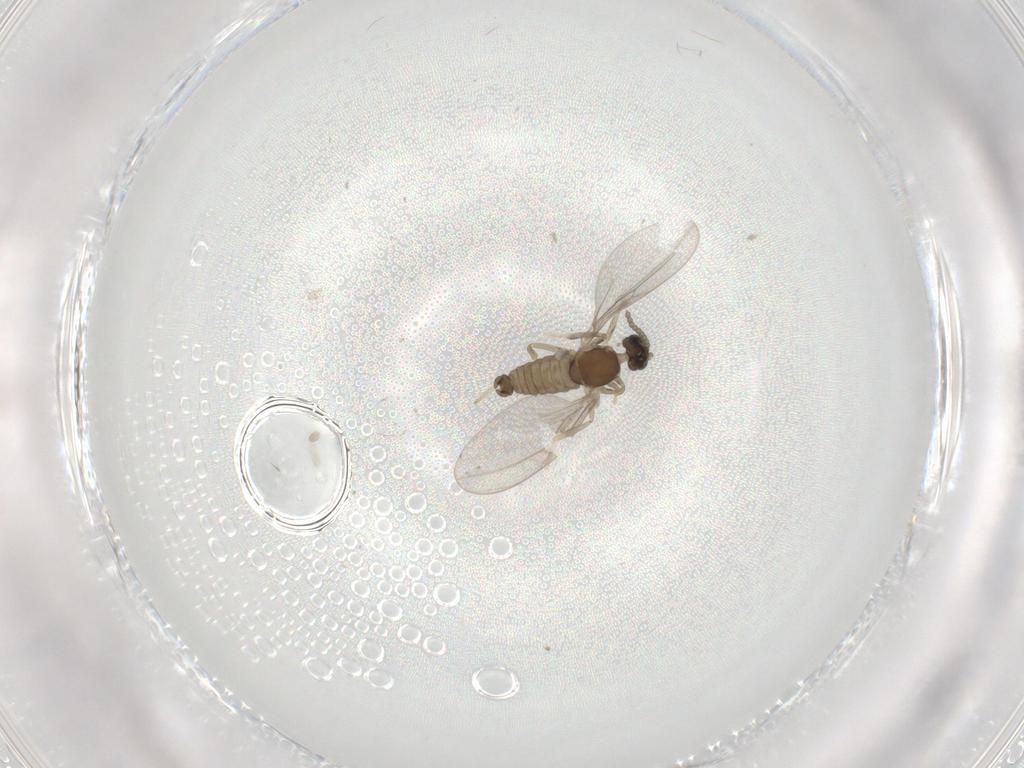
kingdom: Animalia
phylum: Arthropoda
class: Insecta
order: Diptera
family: Cecidomyiidae
